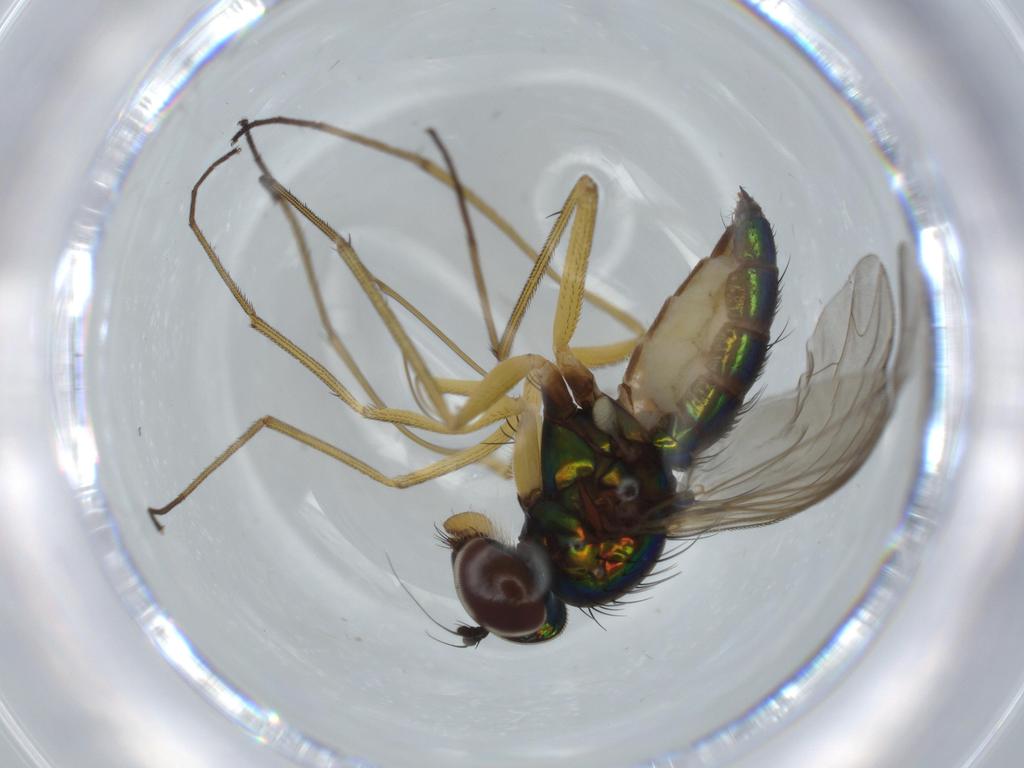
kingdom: Animalia
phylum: Arthropoda
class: Insecta
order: Diptera
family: Dolichopodidae
